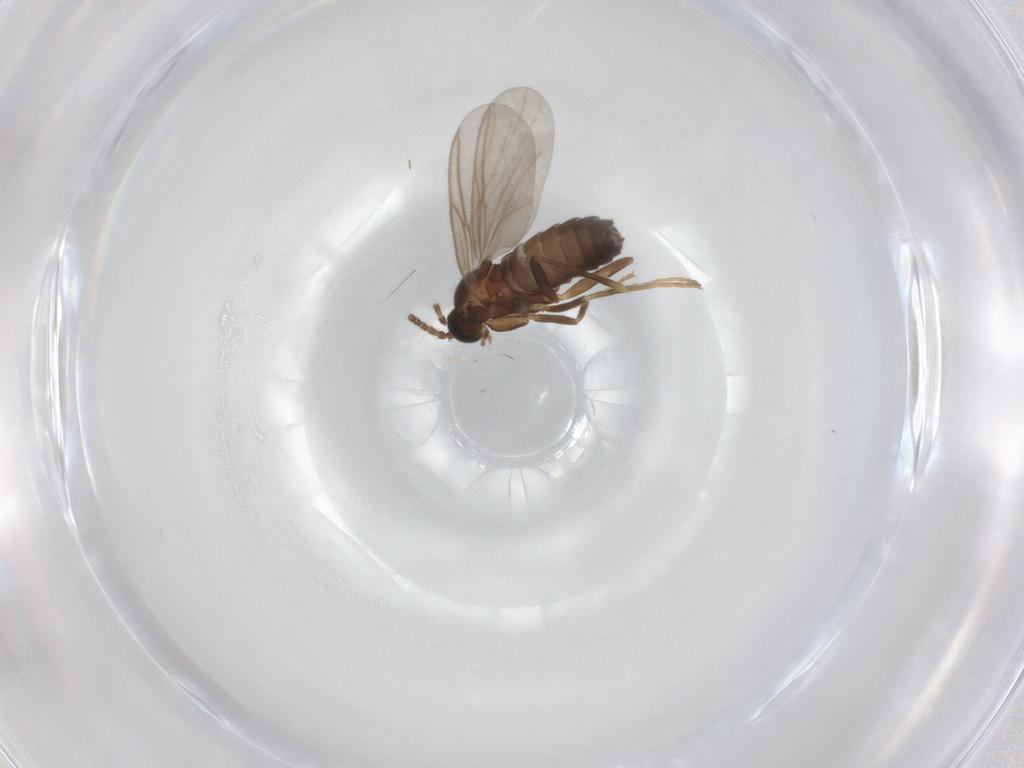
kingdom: Animalia
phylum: Arthropoda
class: Insecta
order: Diptera
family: Scatopsidae
